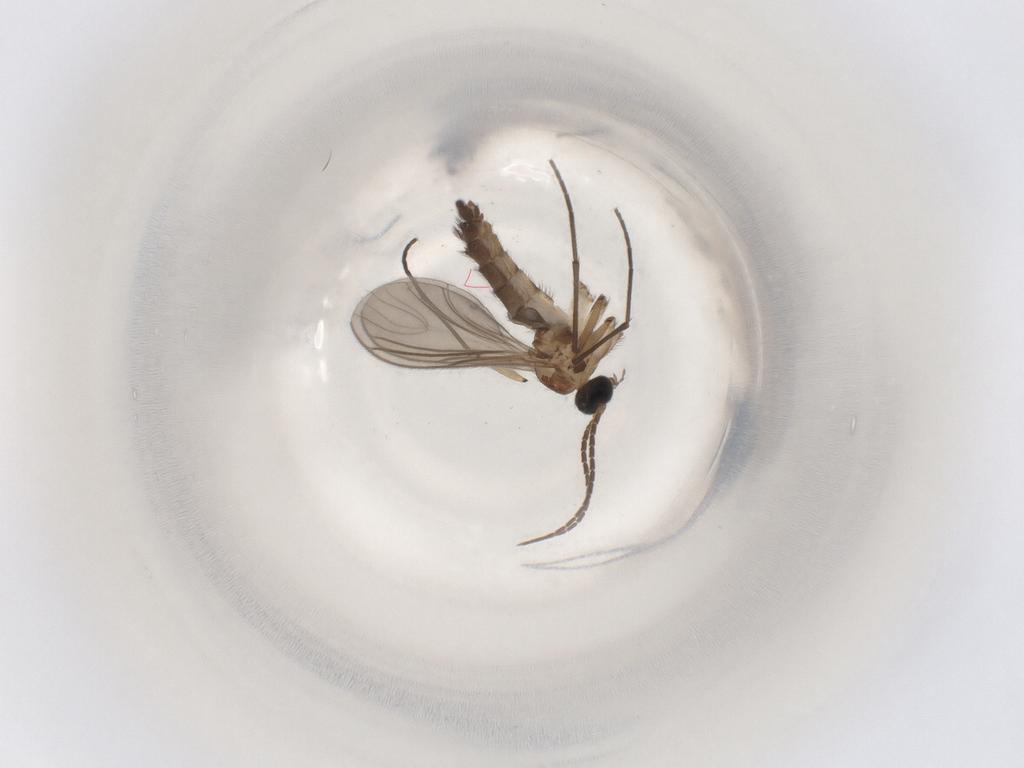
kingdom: Animalia
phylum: Arthropoda
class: Insecta
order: Diptera
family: Sciaridae
